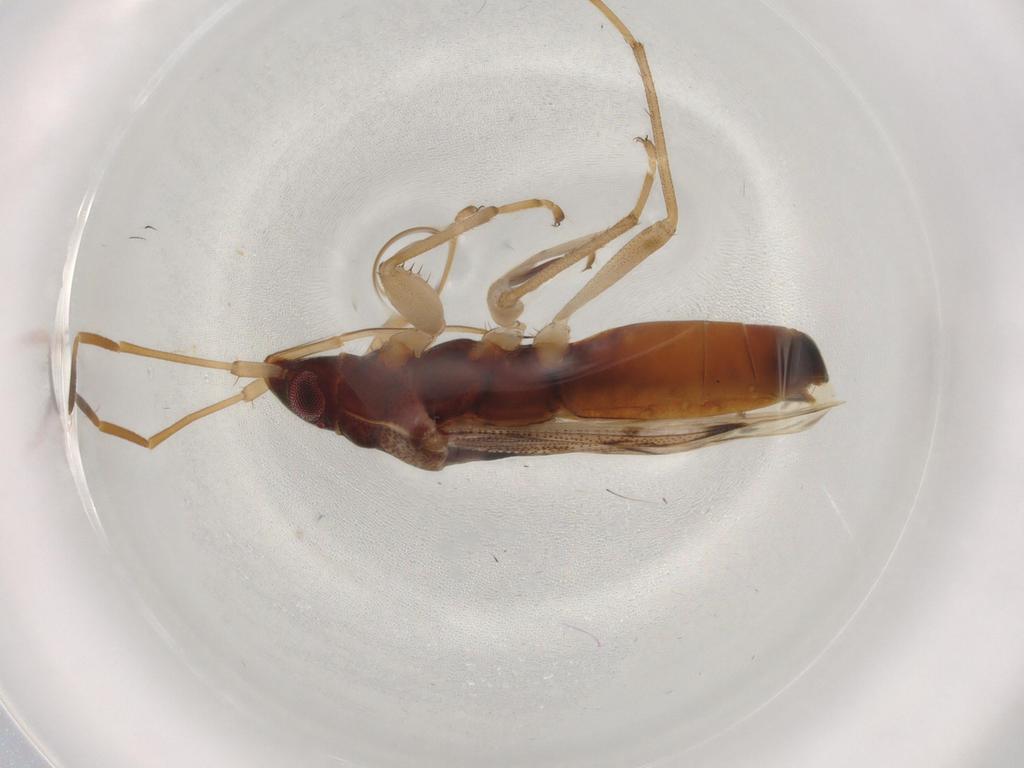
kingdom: Animalia
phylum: Arthropoda
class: Insecta
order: Hemiptera
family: Rhyparochromidae
